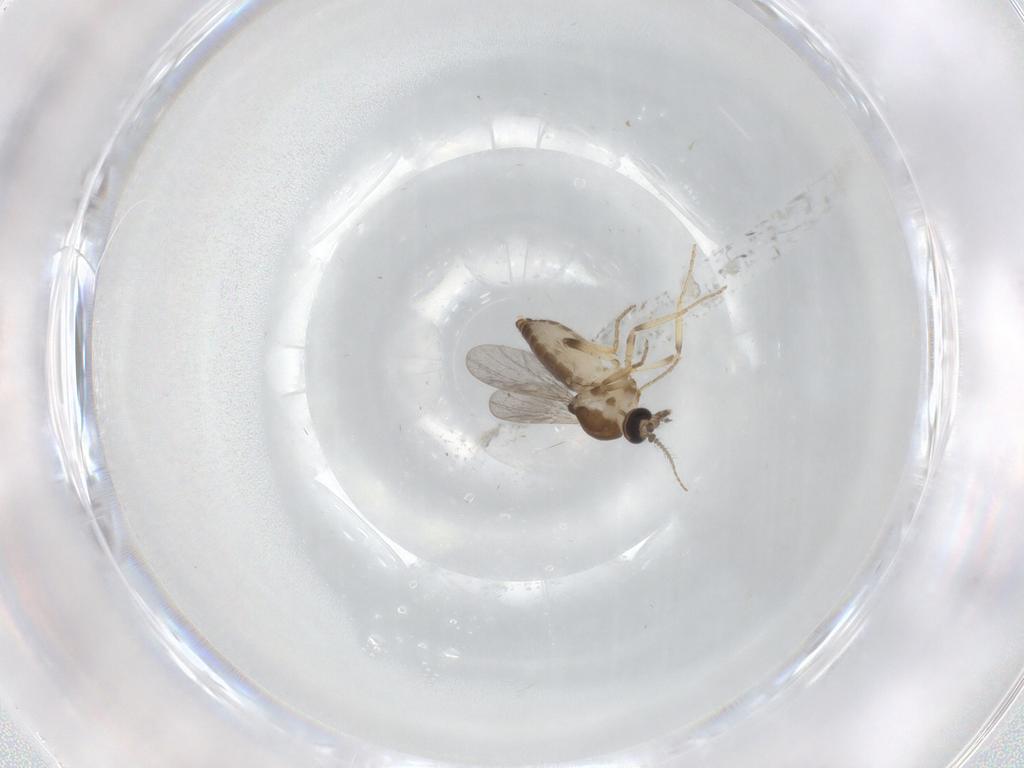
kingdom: Animalia
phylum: Arthropoda
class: Insecta
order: Diptera
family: Ceratopogonidae
